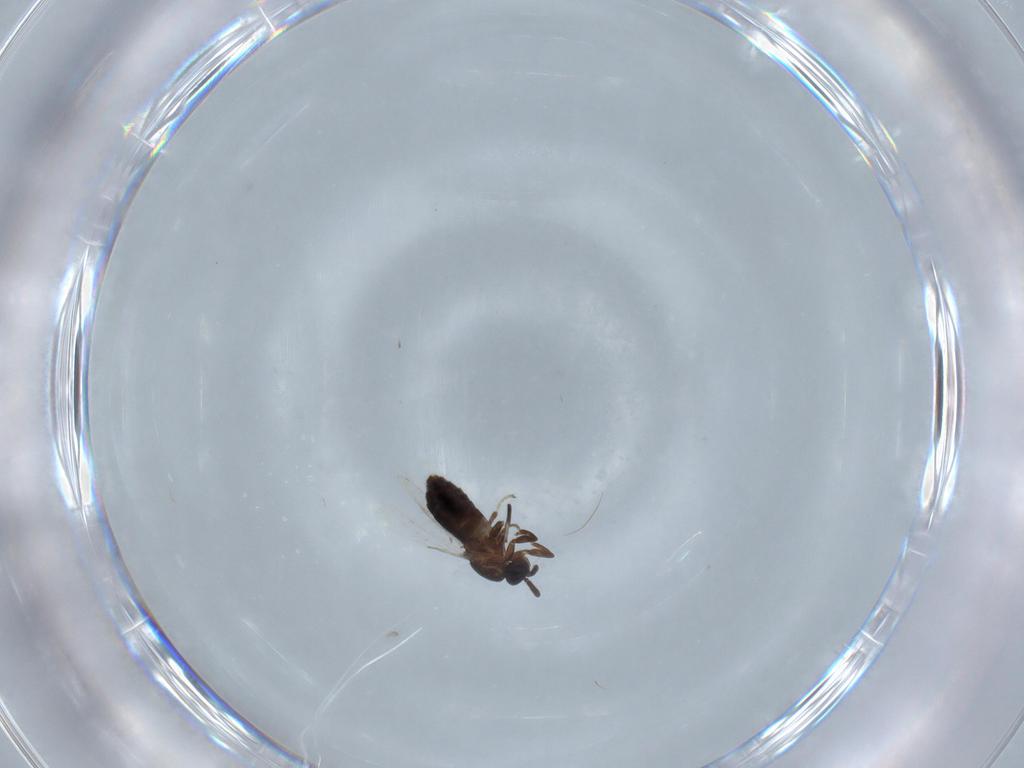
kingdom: Animalia
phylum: Arthropoda
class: Insecta
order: Diptera
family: Scatopsidae
